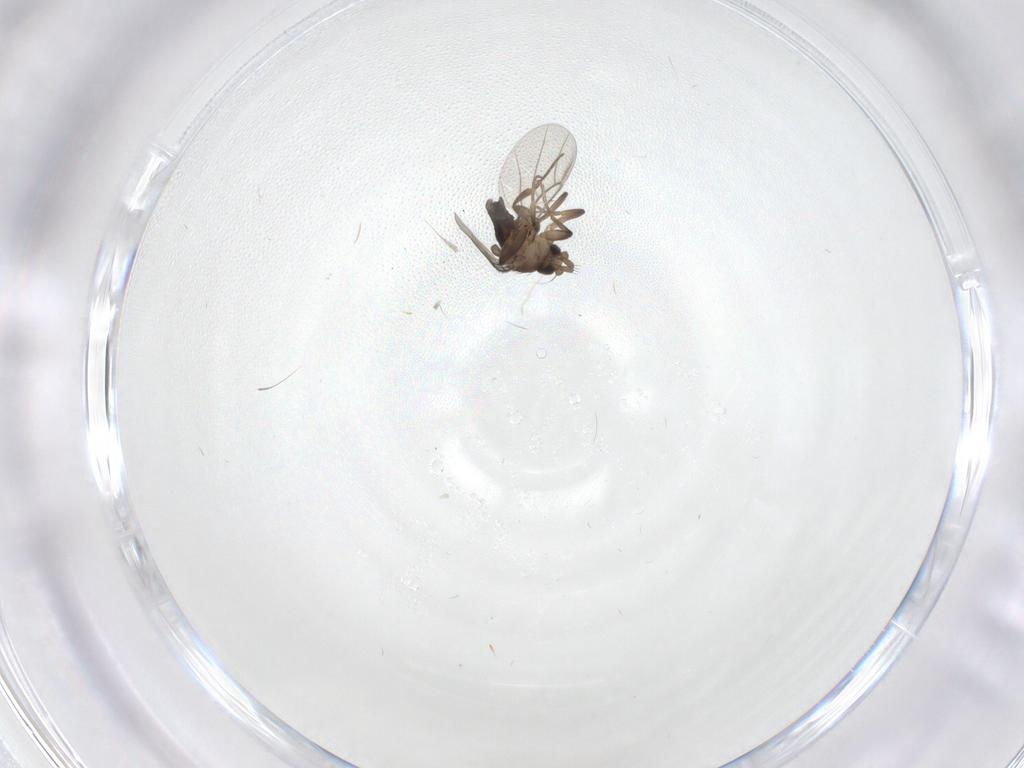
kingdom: Animalia
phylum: Arthropoda
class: Insecta
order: Diptera
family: Phoridae
